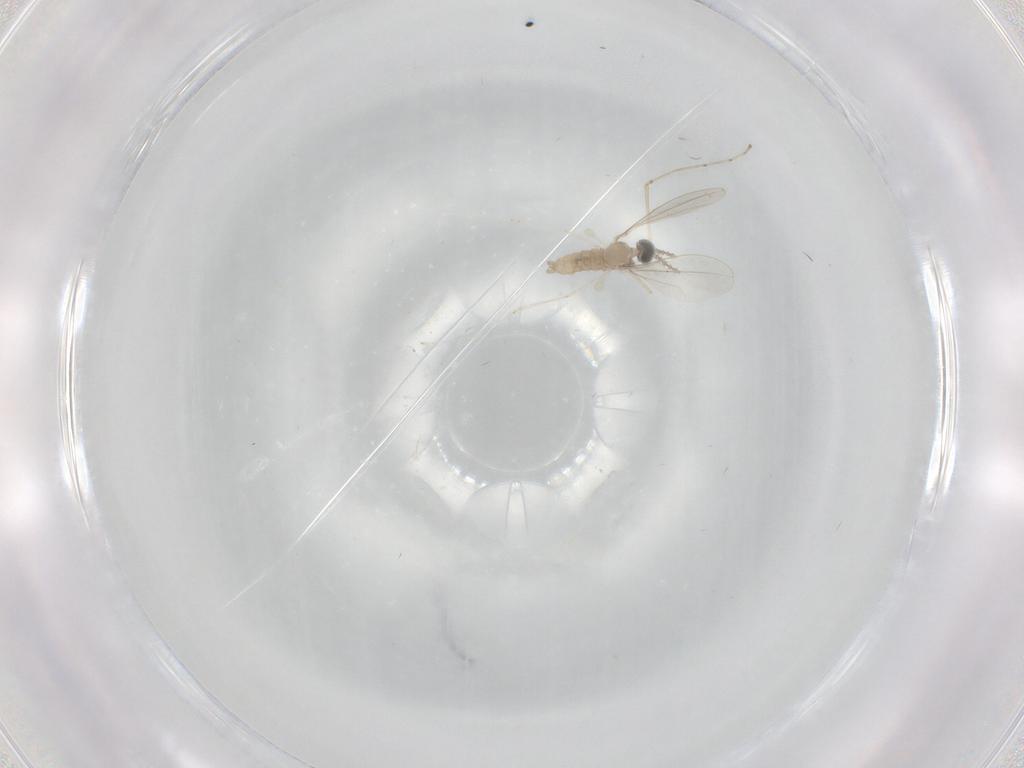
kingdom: Animalia
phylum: Arthropoda
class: Insecta
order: Diptera
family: Cecidomyiidae
